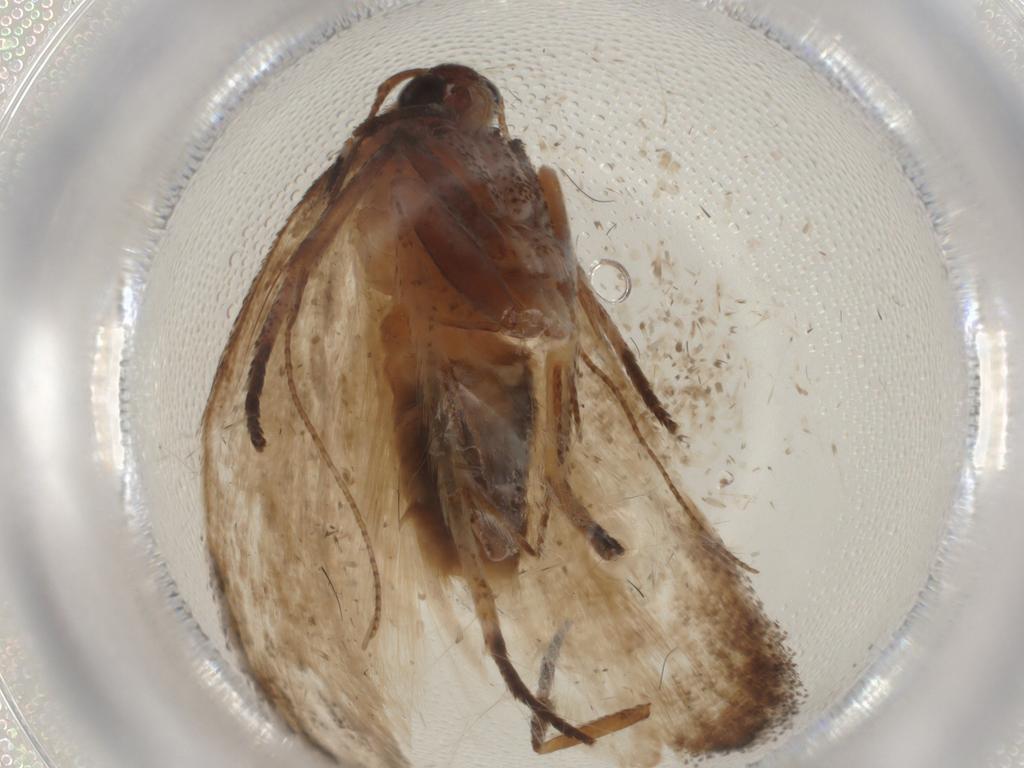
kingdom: Animalia
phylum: Arthropoda
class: Insecta
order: Lepidoptera
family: Cosmopterigidae
